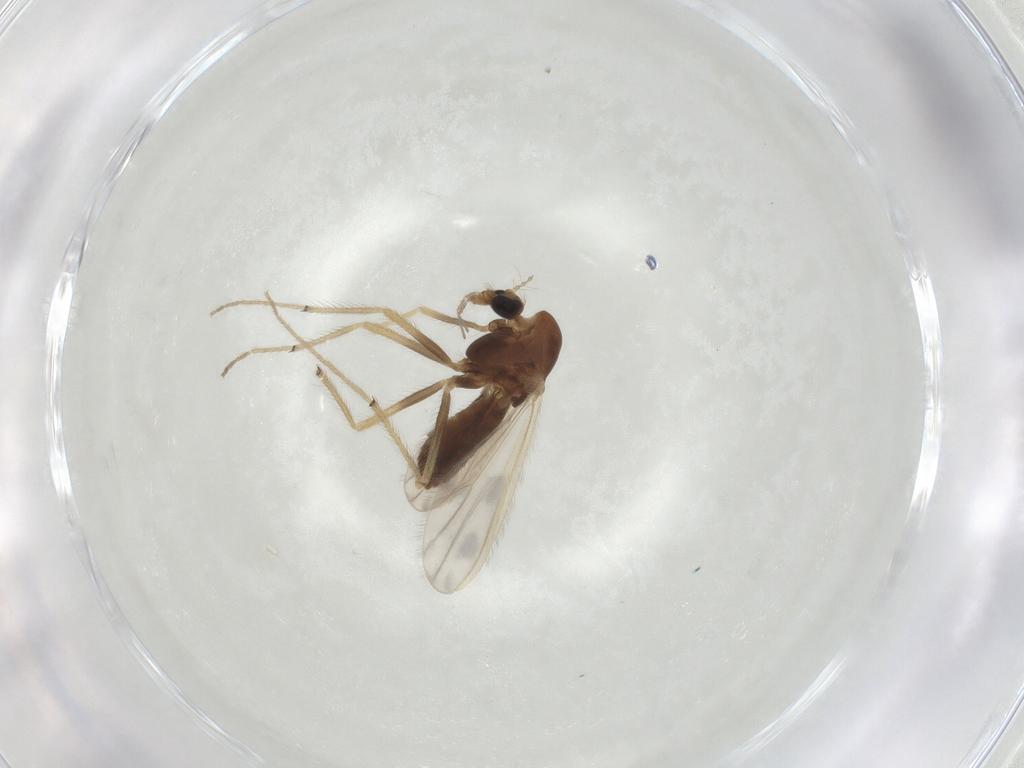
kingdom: Animalia
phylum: Arthropoda
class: Insecta
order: Diptera
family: Chironomidae
